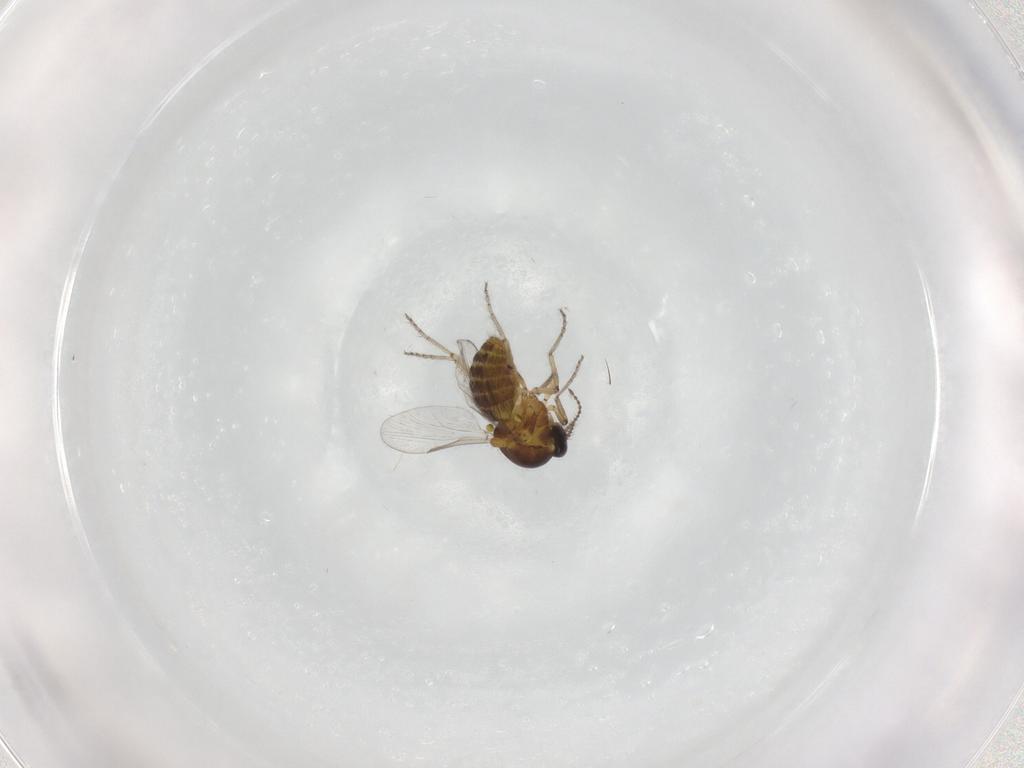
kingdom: Animalia
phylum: Arthropoda
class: Insecta
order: Diptera
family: Ceratopogonidae
